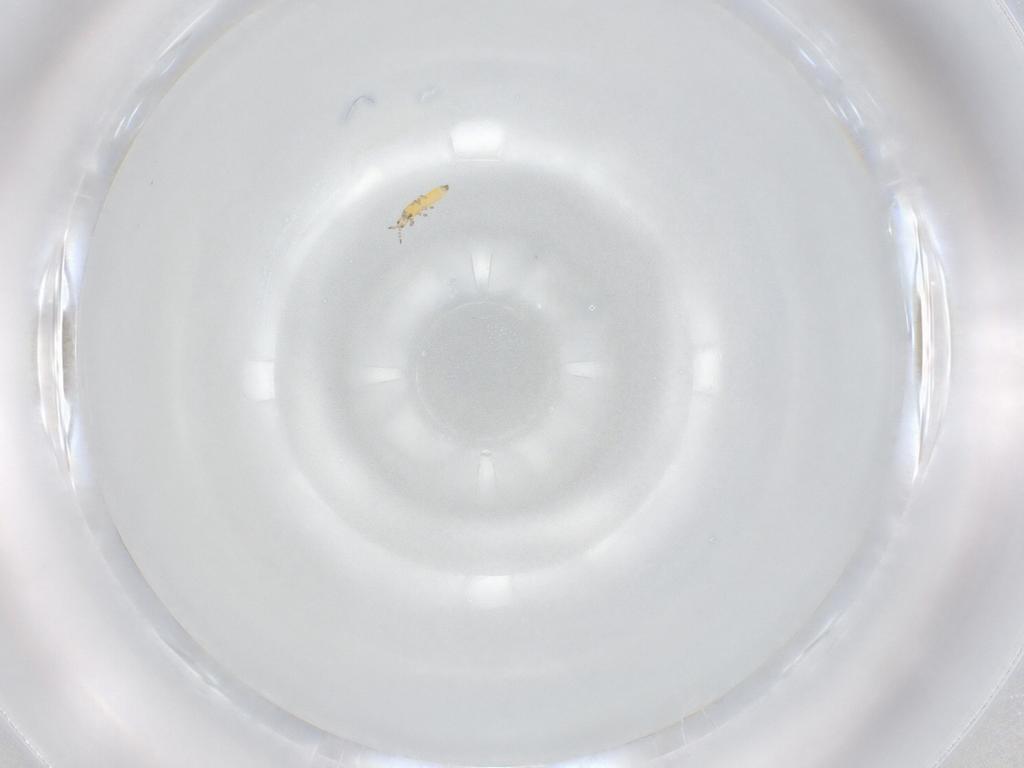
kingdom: Animalia
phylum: Arthropoda
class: Insecta
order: Thysanoptera
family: Thripidae
